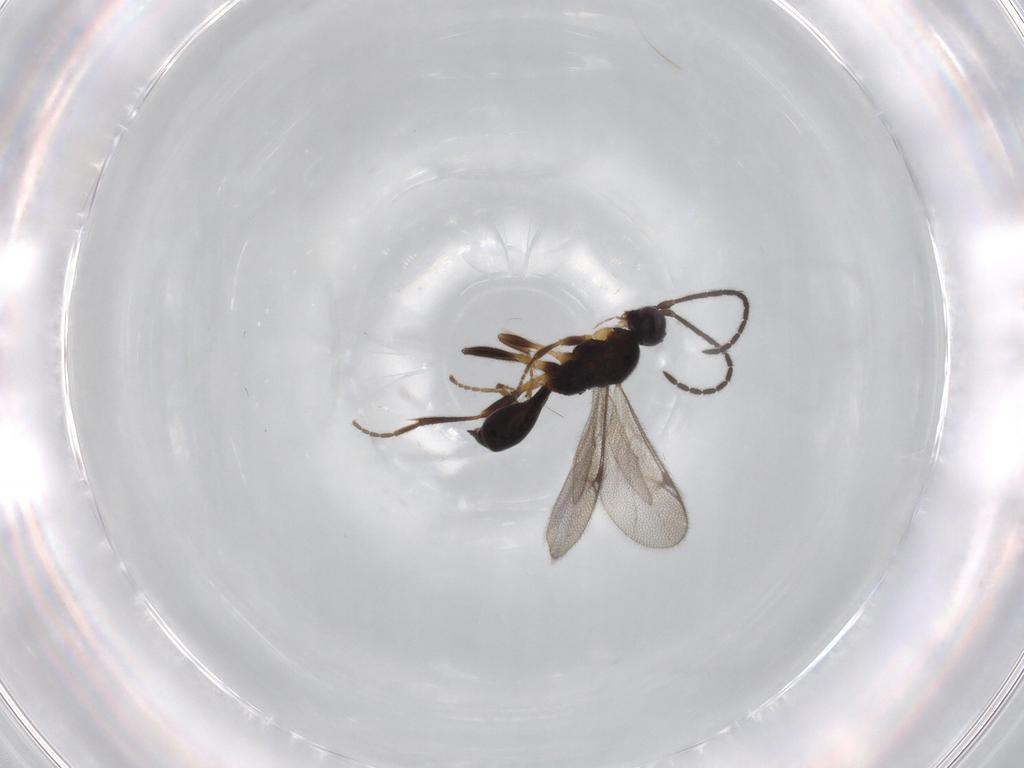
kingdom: Animalia
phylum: Arthropoda
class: Insecta
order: Hymenoptera
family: Proctotrupidae
